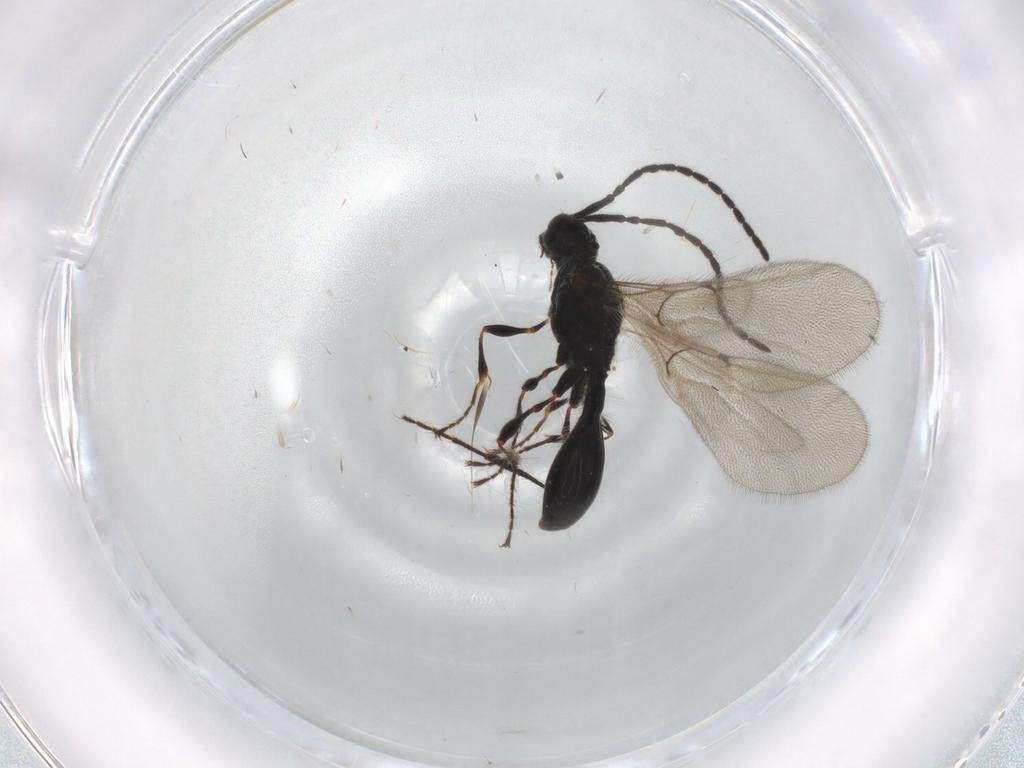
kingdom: Animalia
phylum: Arthropoda
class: Insecta
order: Hymenoptera
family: Diapriidae
